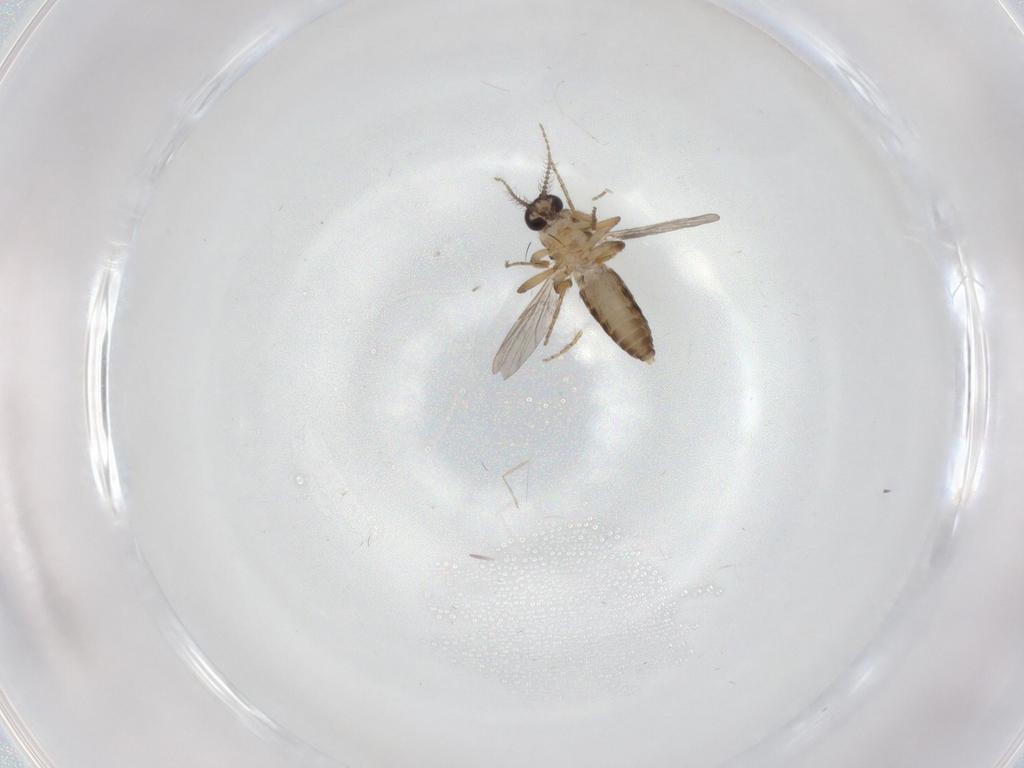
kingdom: Animalia
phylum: Arthropoda
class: Insecta
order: Diptera
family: Ceratopogonidae
